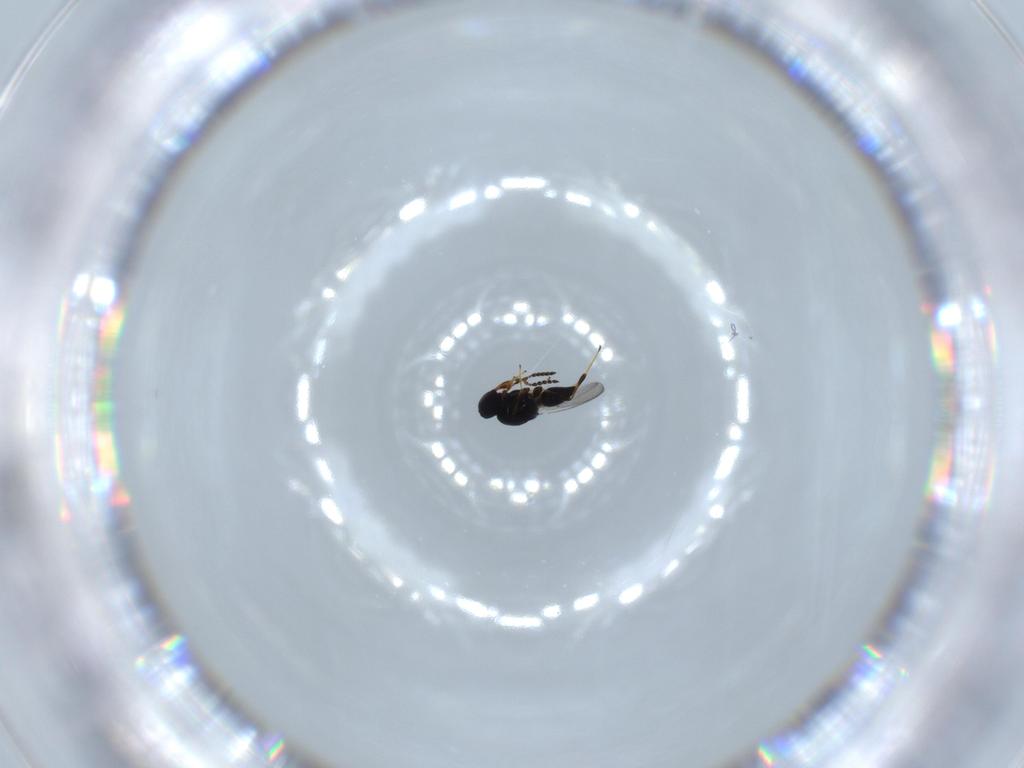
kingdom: Animalia
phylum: Arthropoda
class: Insecta
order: Hymenoptera
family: Platygastridae
